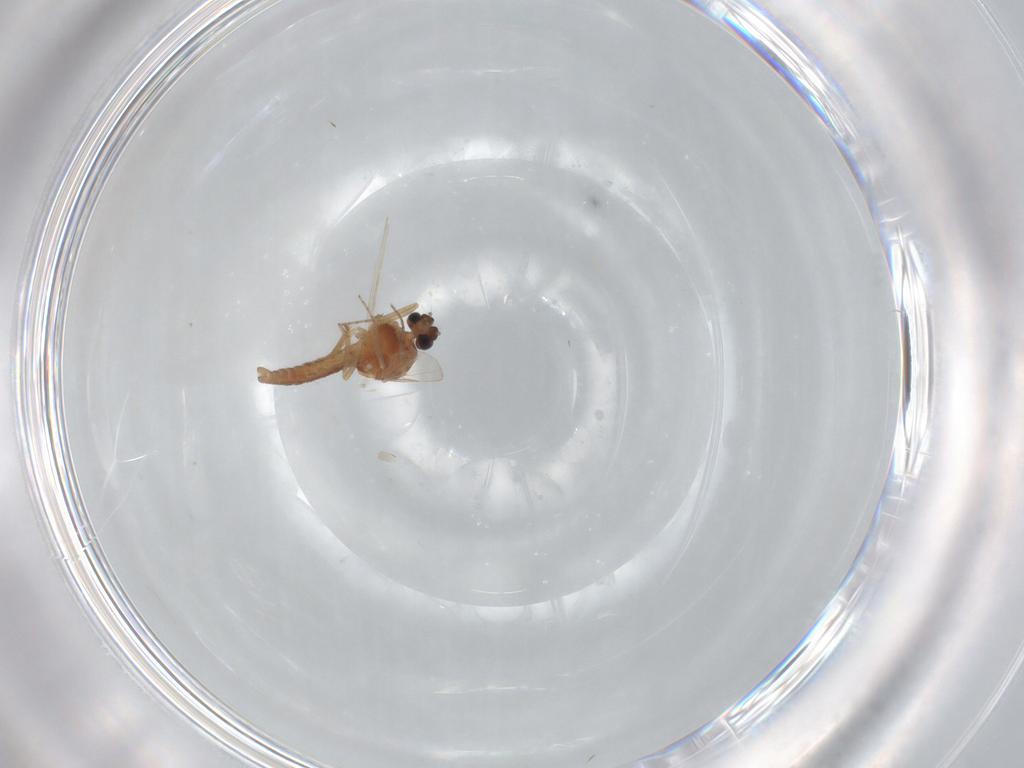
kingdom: Animalia
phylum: Arthropoda
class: Insecta
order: Diptera
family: Ceratopogonidae
